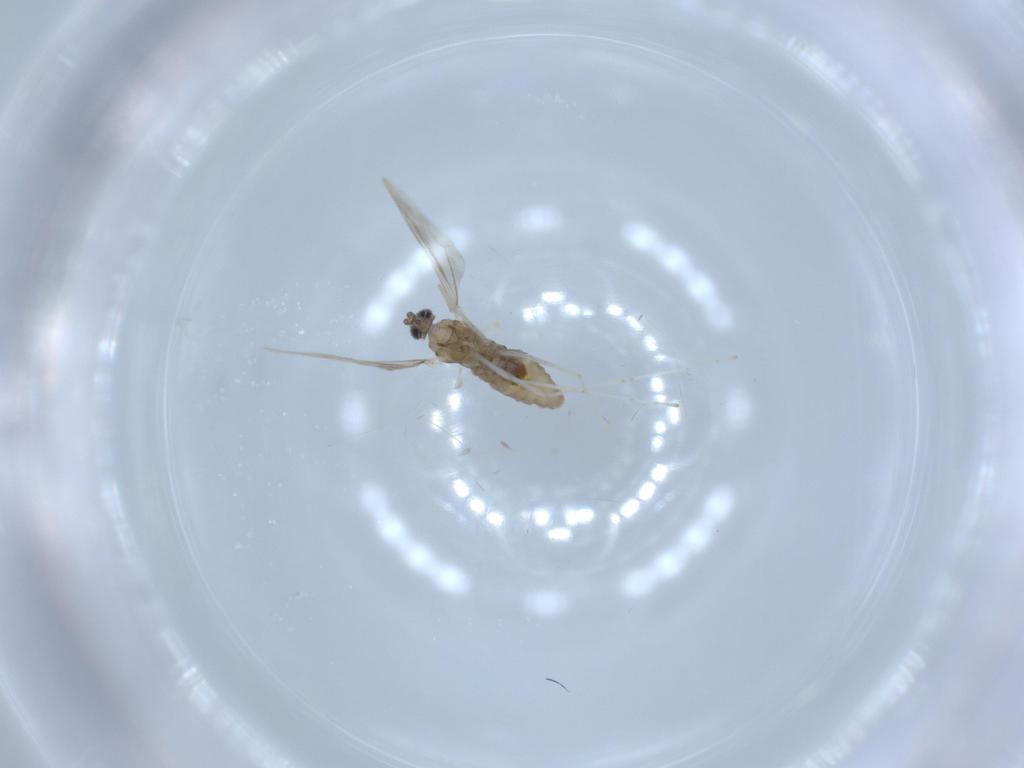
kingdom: Animalia
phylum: Arthropoda
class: Insecta
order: Diptera
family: Cecidomyiidae
